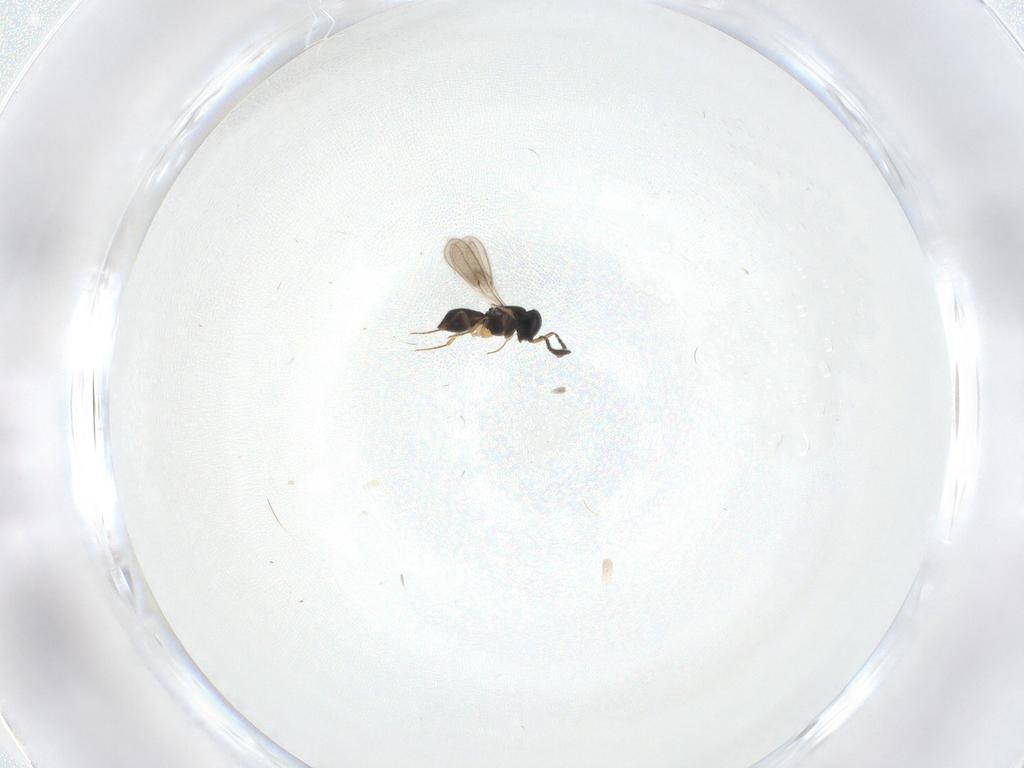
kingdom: Animalia
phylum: Arthropoda
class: Insecta
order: Hymenoptera
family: Scelionidae
